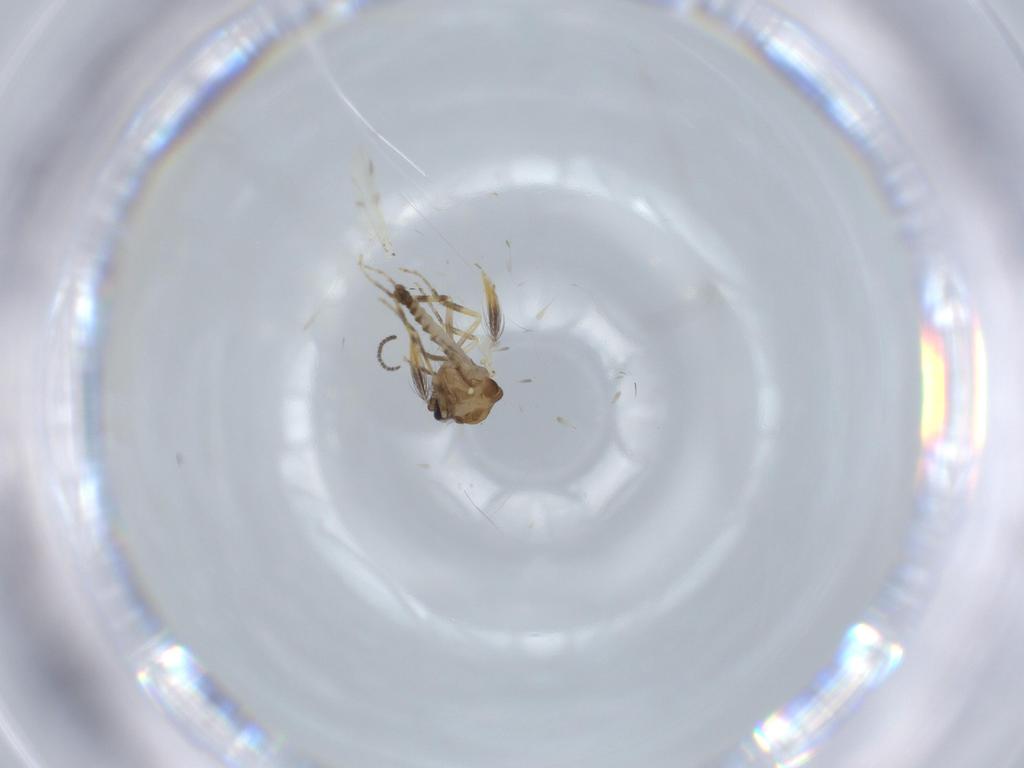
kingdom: Animalia
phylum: Arthropoda
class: Insecta
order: Diptera
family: Ceratopogonidae
